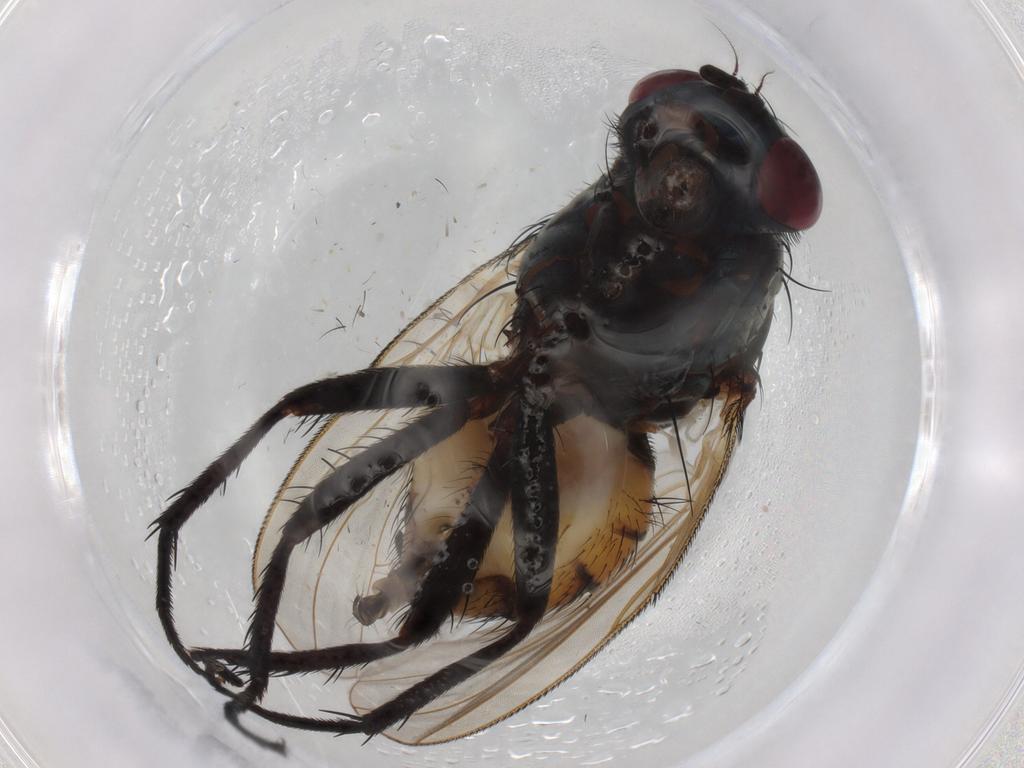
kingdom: Animalia
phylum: Arthropoda
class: Insecta
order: Diptera
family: Anthomyiidae
